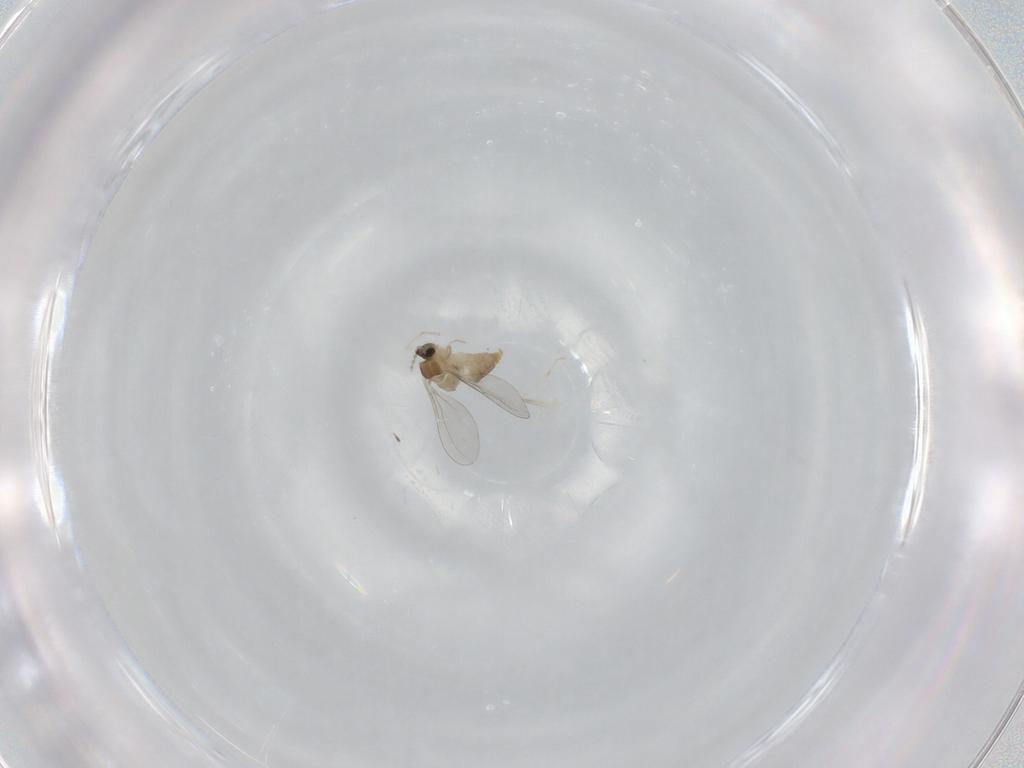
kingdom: Animalia
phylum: Arthropoda
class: Insecta
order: Diptera
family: Cecidomyiidae
